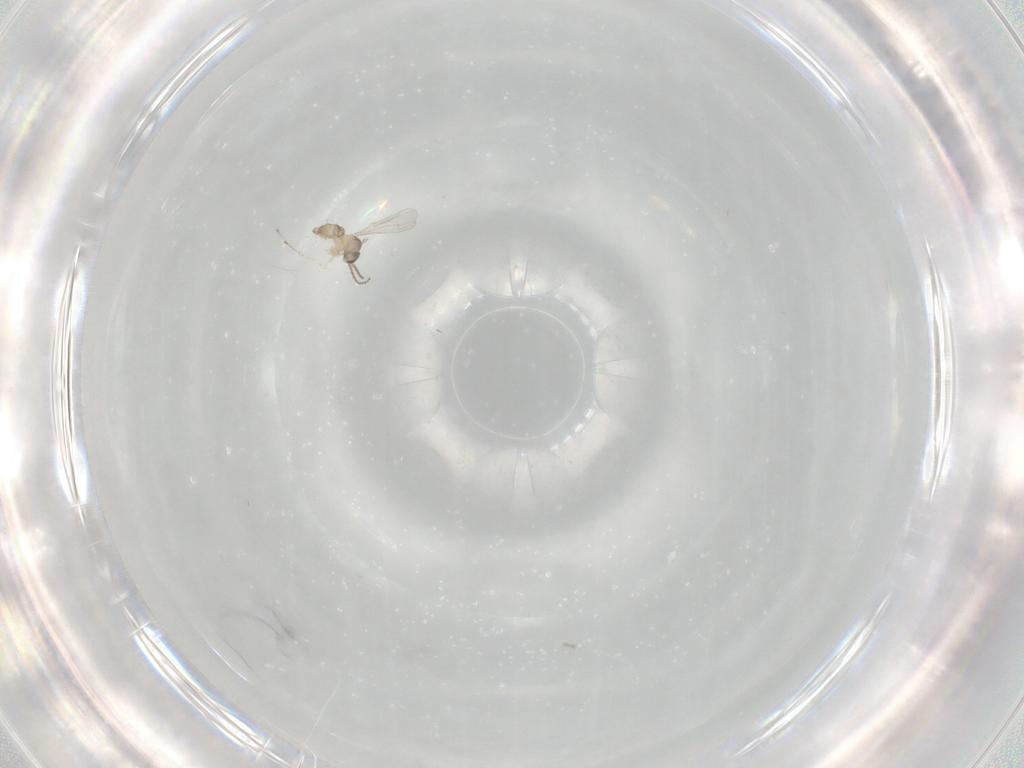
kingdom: Animalia
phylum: Arthropoda
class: Insecta
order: Diptera
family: Cecidomyiidae
